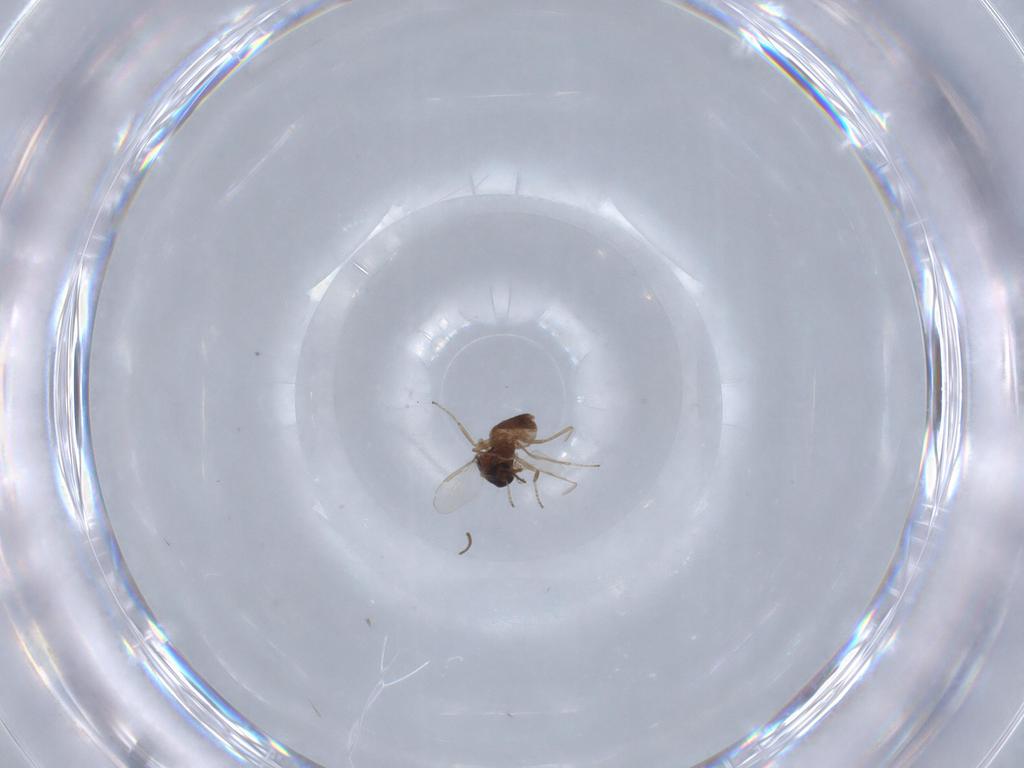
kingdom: Animalia
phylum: Arthropoda
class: Insecta
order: Diptera
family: Ceratopogonidae
